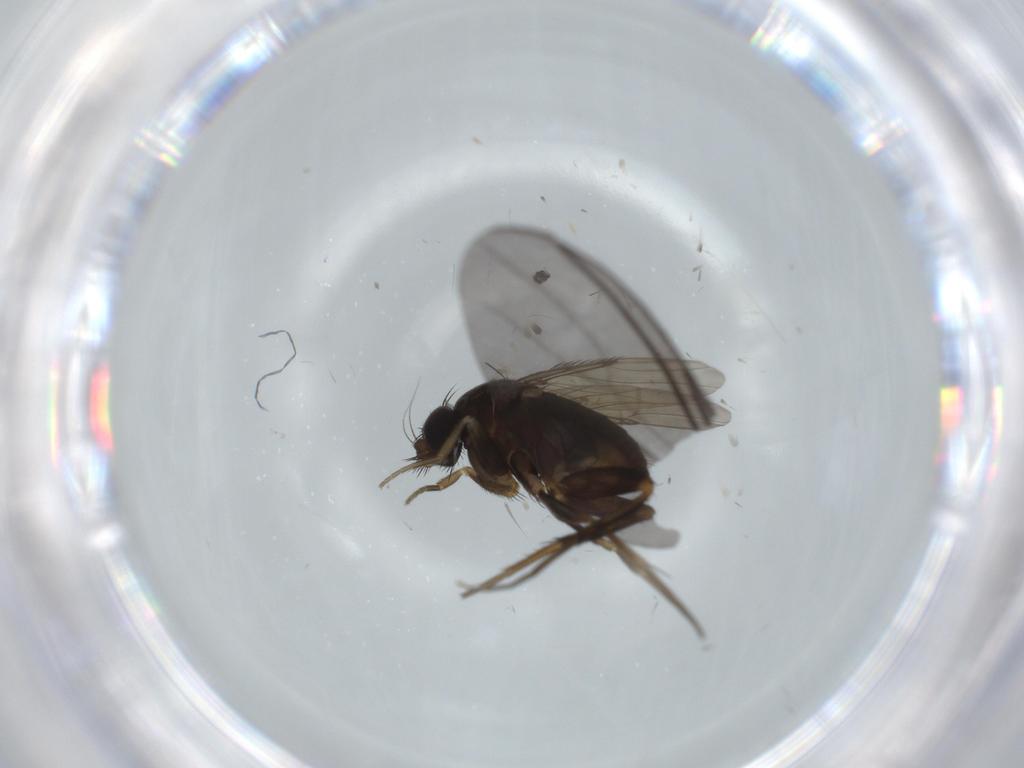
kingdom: Animalia
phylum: Arthropoda
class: Insecta
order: Diptera
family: Sciaridae
